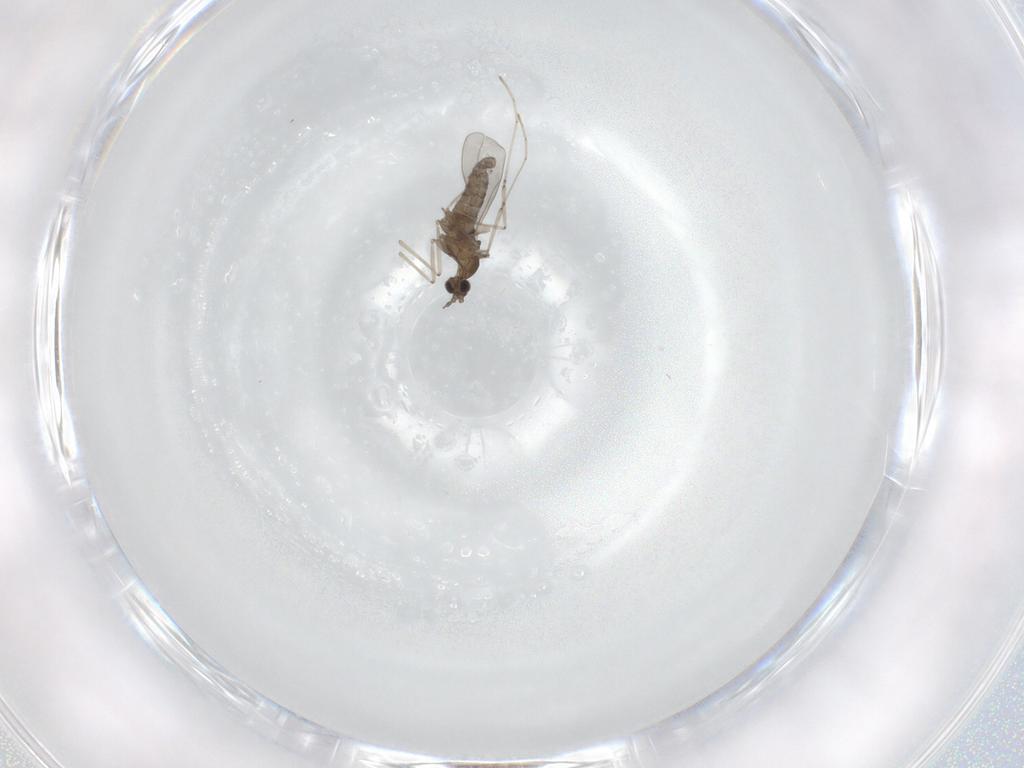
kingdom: Animalia
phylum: Arthropoda
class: Insecta
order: Diptera
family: Cecidomyiidae
